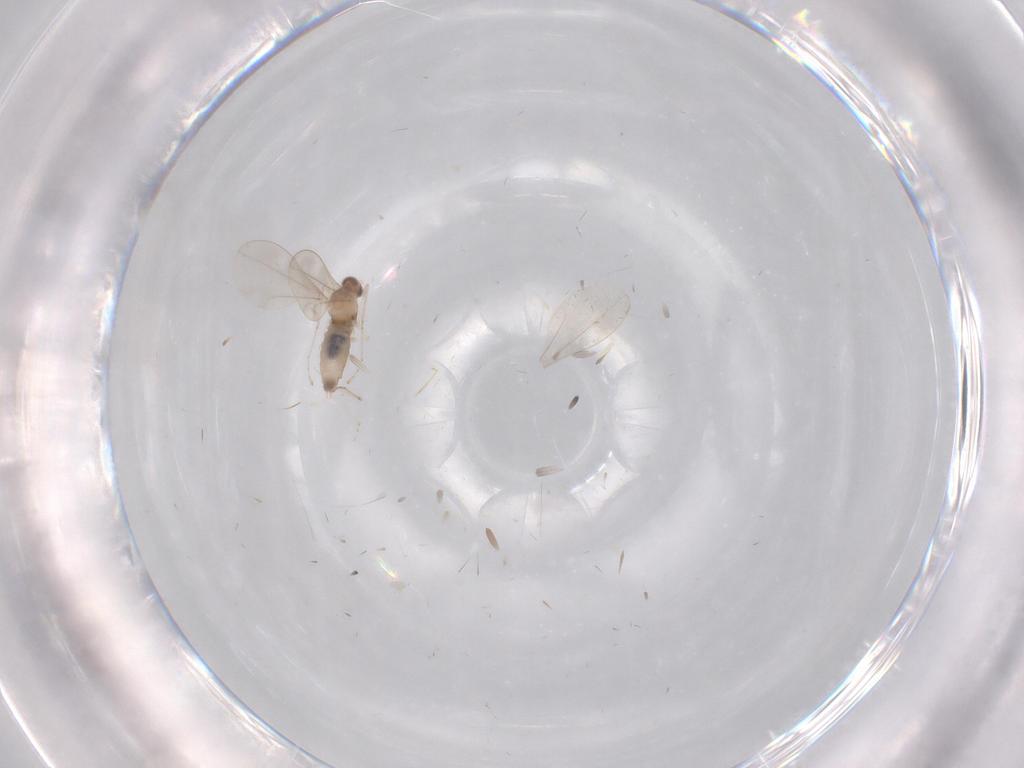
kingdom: Animalia
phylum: Arthropoda
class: Insecta
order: Diptera
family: Cecidomyiidae
